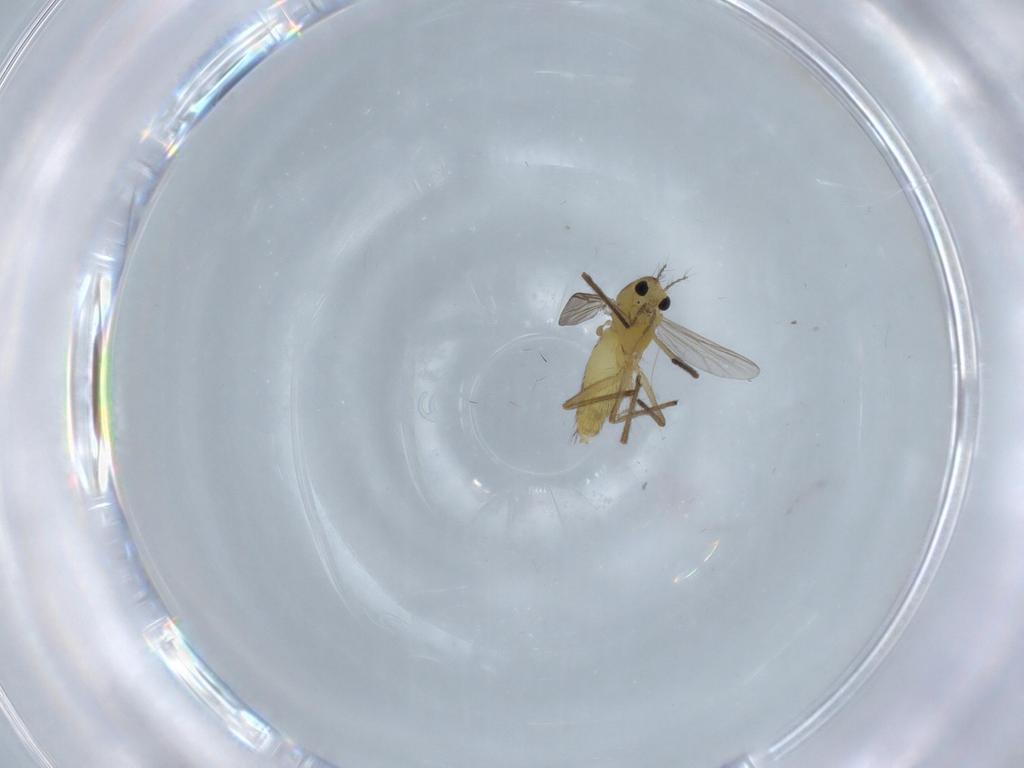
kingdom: Animalia
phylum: Arthropoda
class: Insecta
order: Diptera
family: Chironomidae
